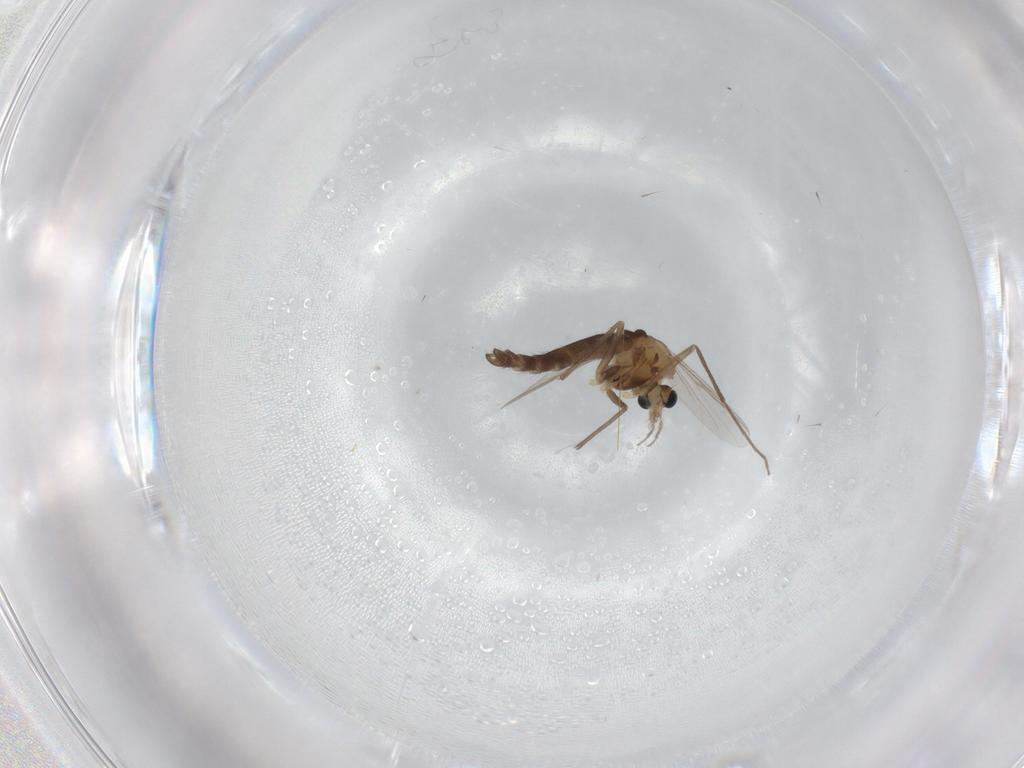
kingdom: Animalia
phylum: Arthropoda
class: Insecta
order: Diptera
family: Chironomidae
